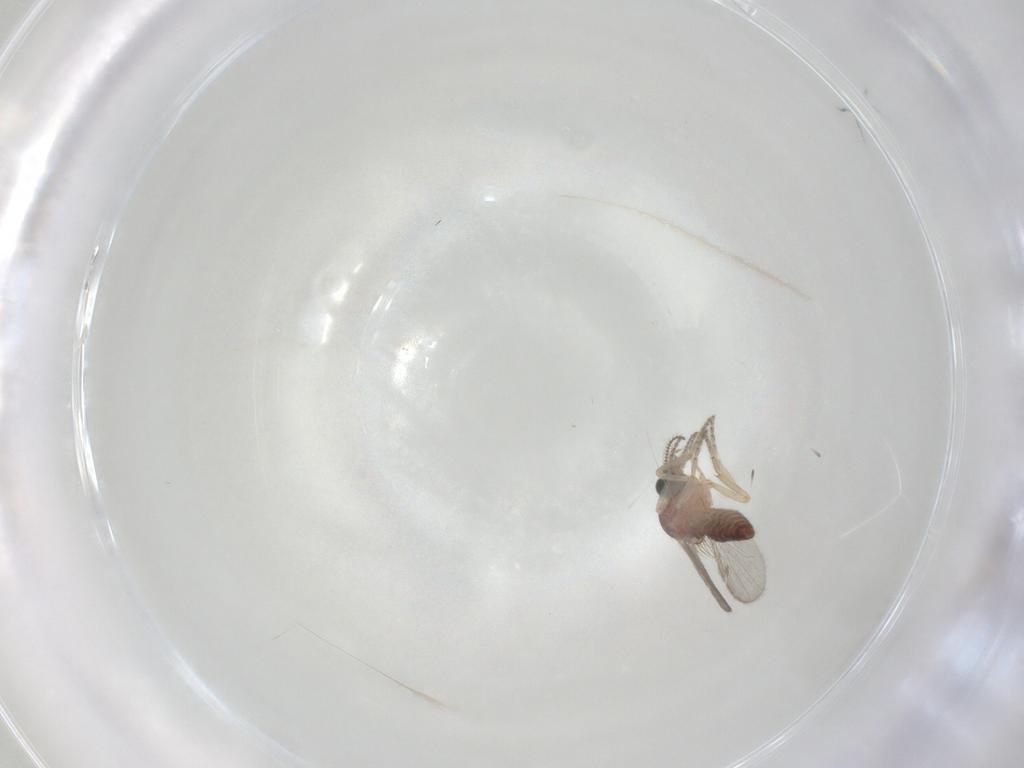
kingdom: Animalia
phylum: Arthropoda
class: Insecta
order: Diptera
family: Ceratopogonidae
